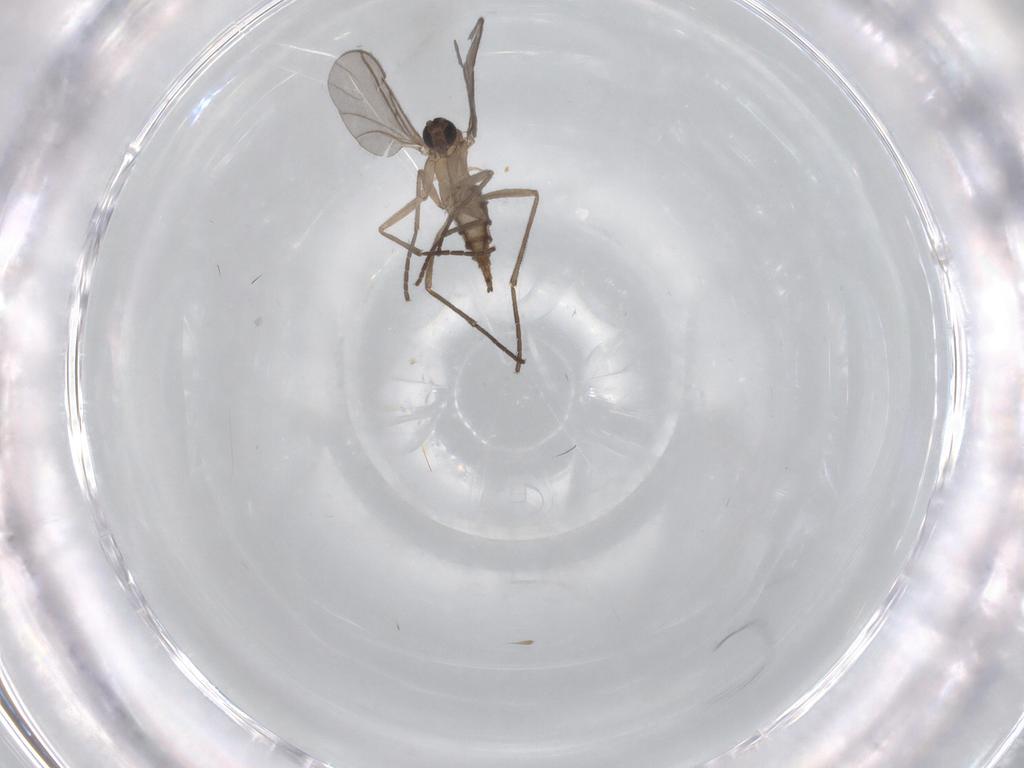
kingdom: Animalia
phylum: Arthropoda
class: Insecta
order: Diptera
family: Sciaridae
